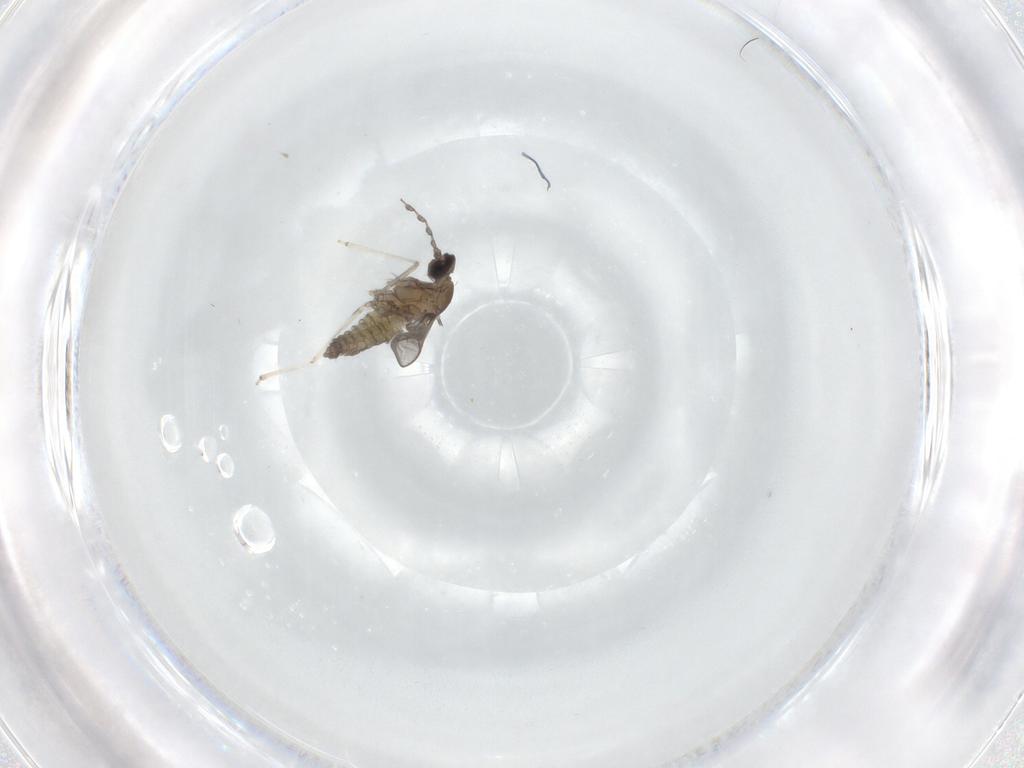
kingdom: Animalia
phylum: Arthropoda
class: Insecta
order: Diptera
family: Cecidomyiidae
